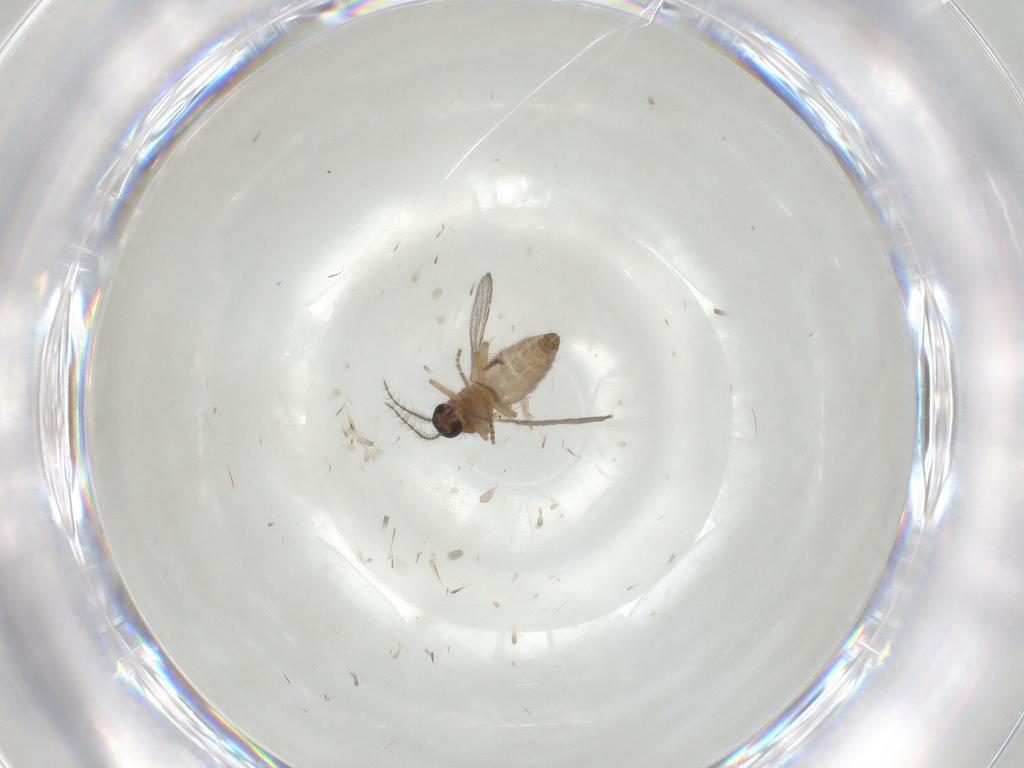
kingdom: Animalia
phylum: Arthropoda
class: Insecta
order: Diptera
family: Ceratopogonidae
